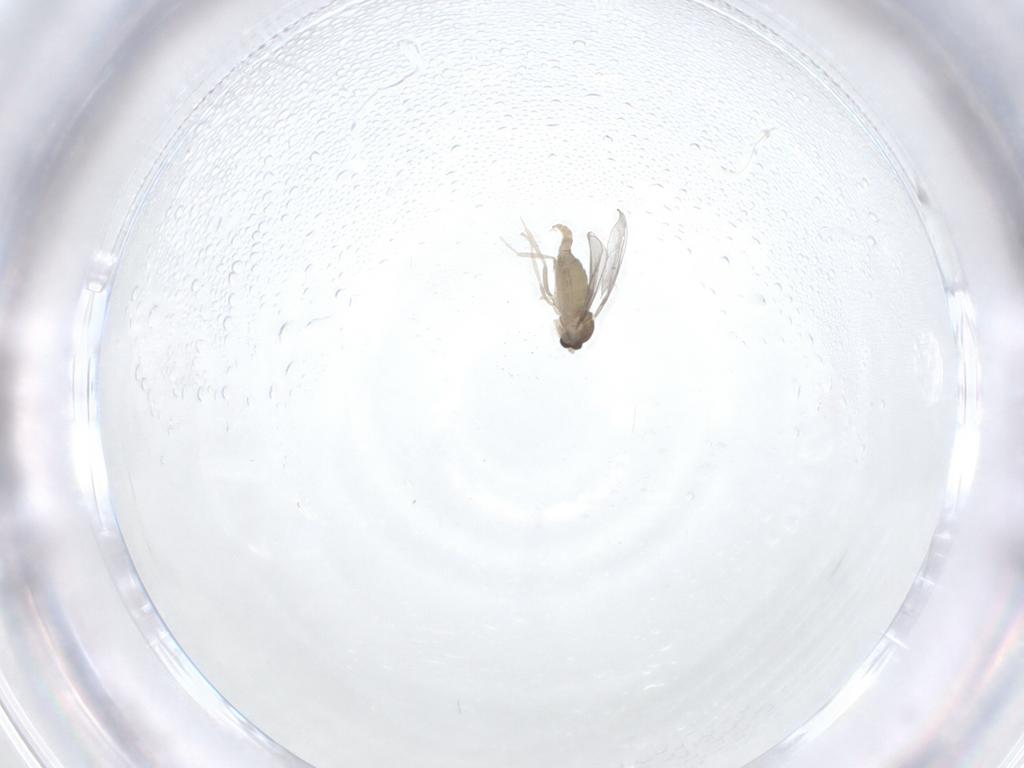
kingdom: Animalia
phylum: Arthropoda
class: Insecta
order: Diptera
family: Cecidomyiidae
